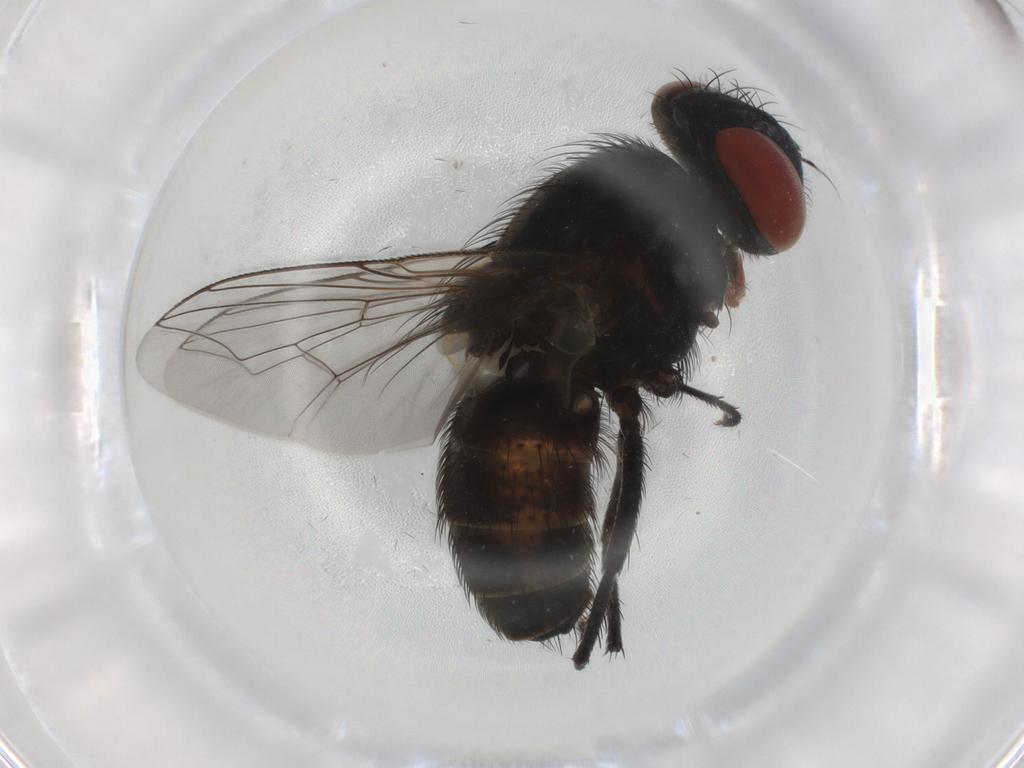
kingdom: Animalia
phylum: Arthropoda
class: Insecta
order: Diptera
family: Sarcophagidae
